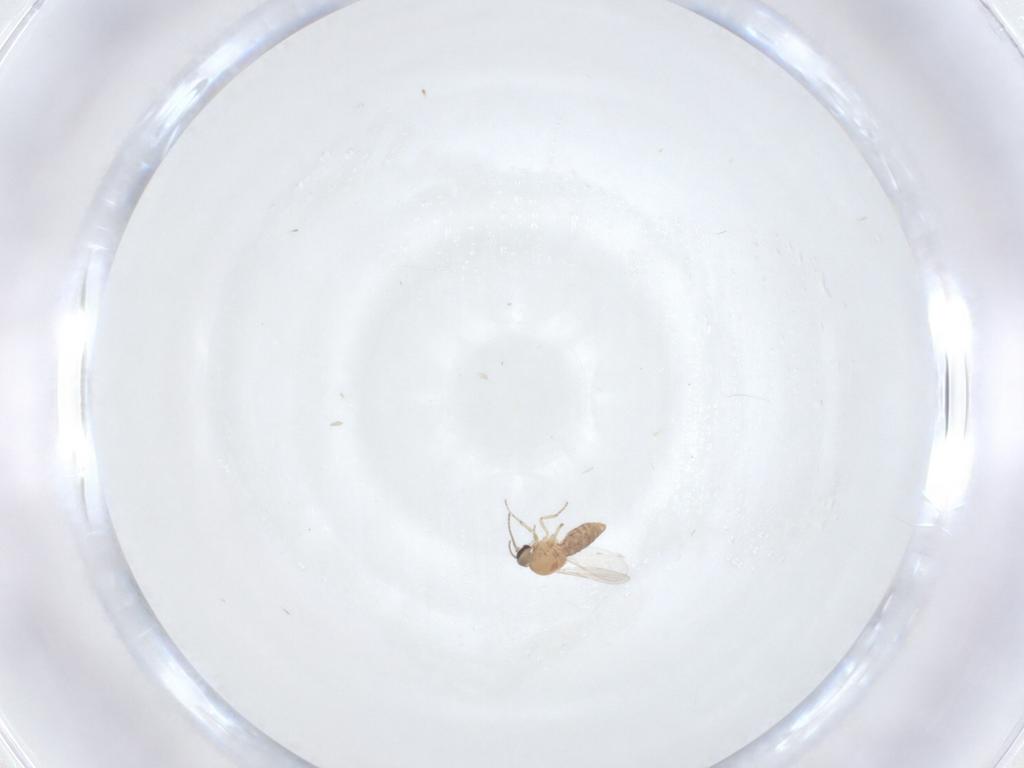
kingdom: Animalia
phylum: Arthropoda
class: Insecta
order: Diptera
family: Ceratopogonidae
